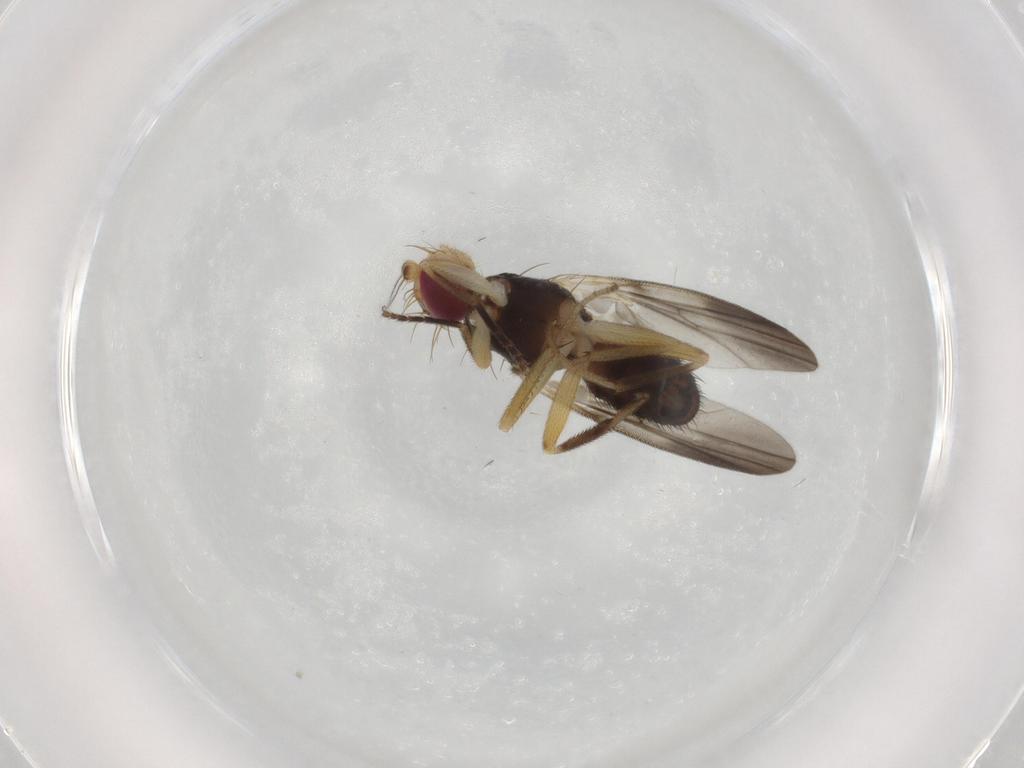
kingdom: Animalia
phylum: Arthropoda
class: Insecta
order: Diptera
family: Clusiidae
